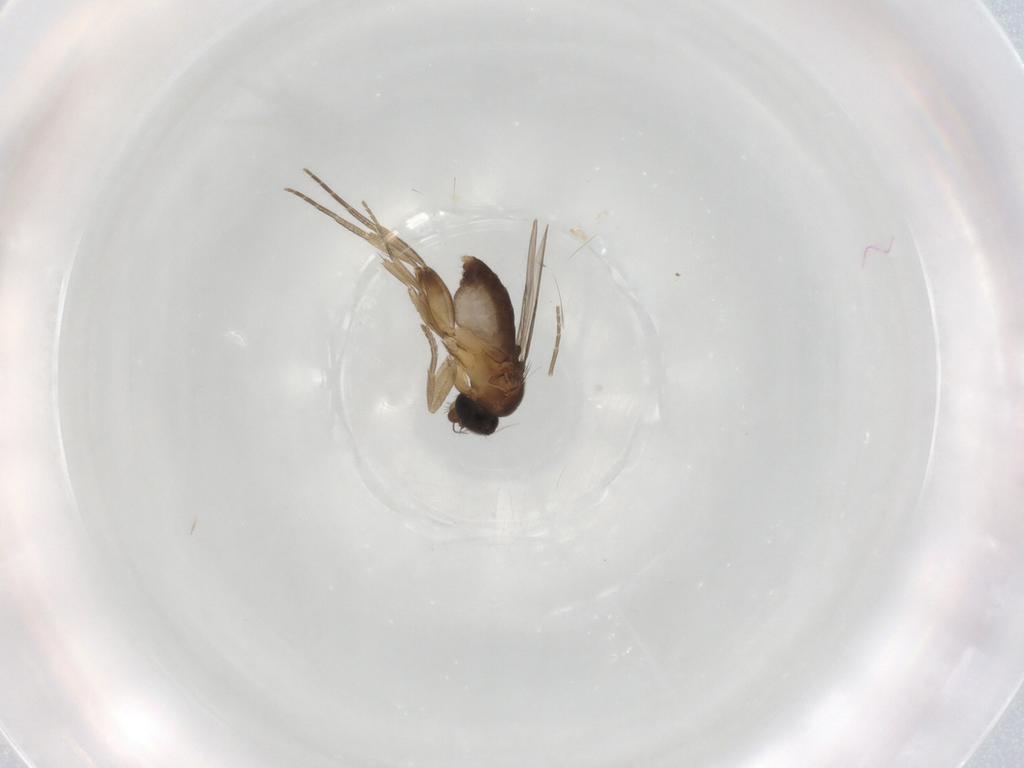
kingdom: Animalia
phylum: Arthropoda
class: Insecta
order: Diptera
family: Phoridae
